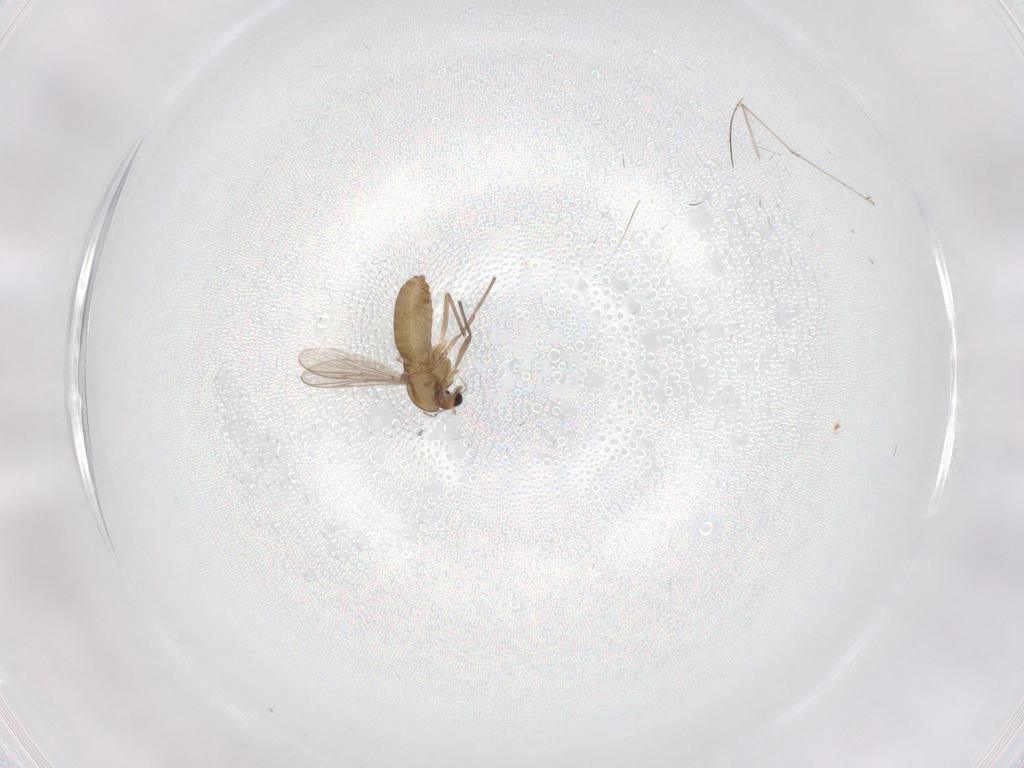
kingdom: Animalia
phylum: Arthropoda
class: Insecta
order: Diptera
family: Chironomidae
